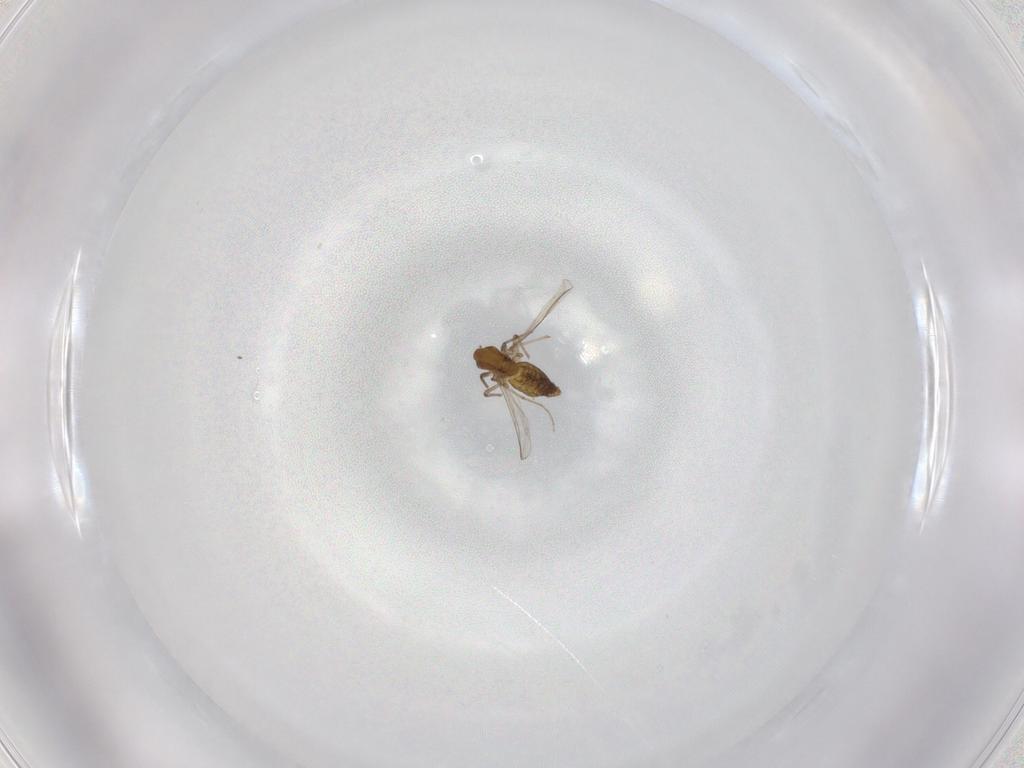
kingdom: Animalia
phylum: Arthropoda
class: Insecta
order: Diptera
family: Chironomidae
